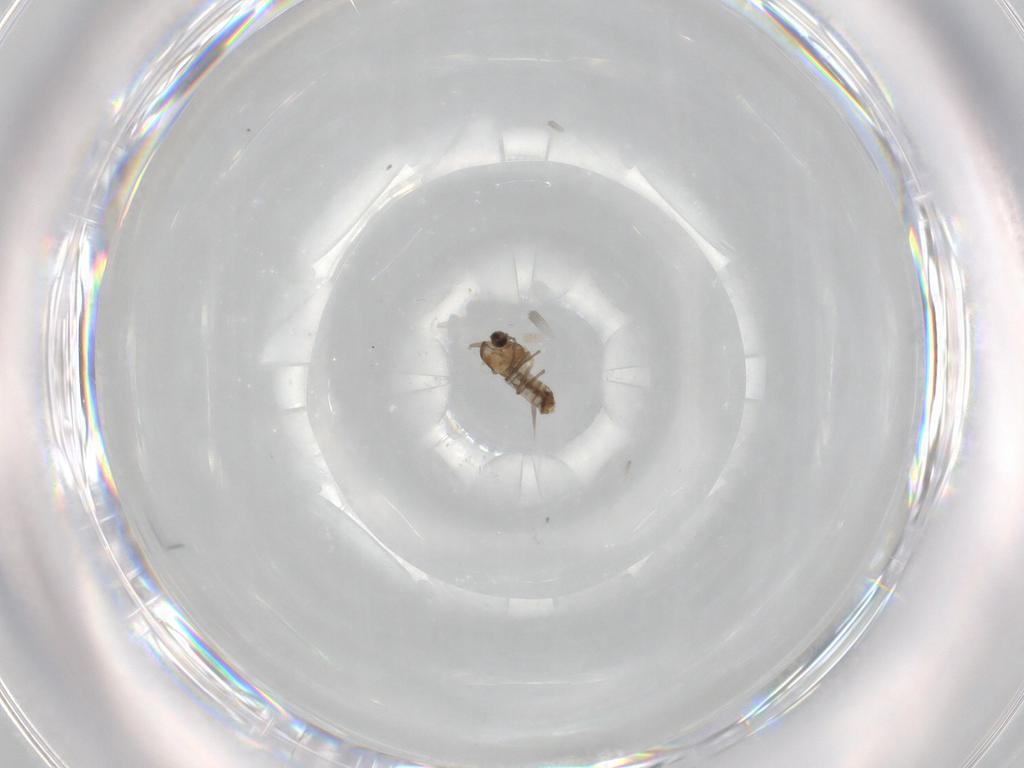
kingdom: Animalia
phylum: Arthropoda
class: Insecta
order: Diptera
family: Chironomidae
